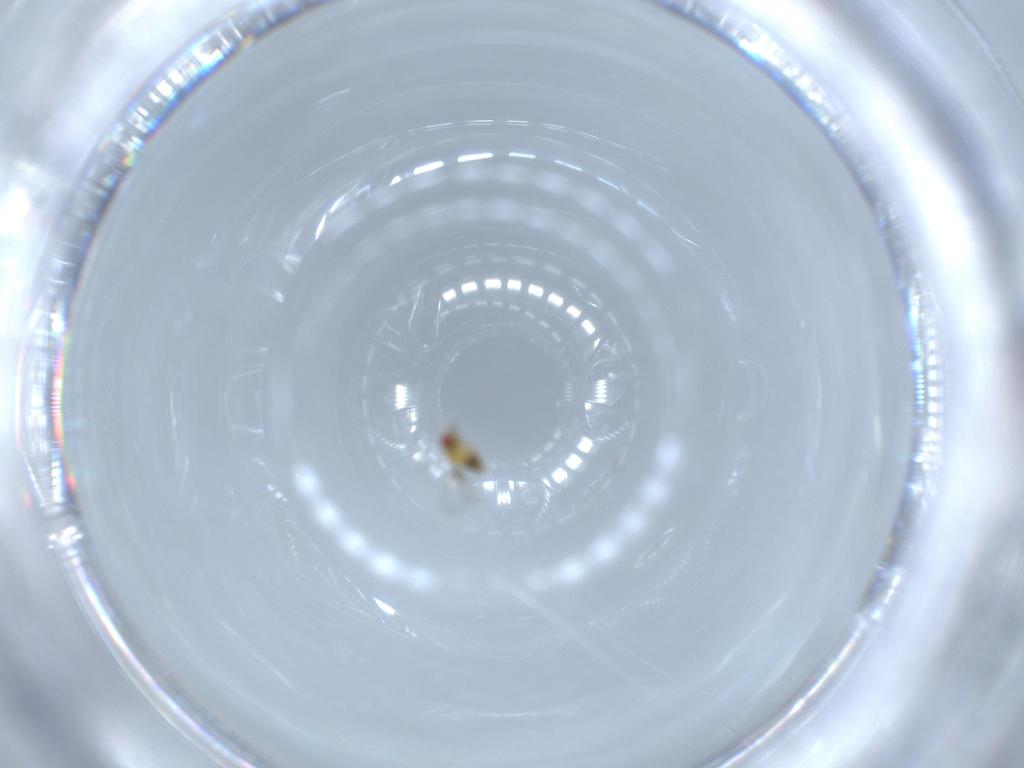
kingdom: Animalia
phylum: Arthropoda
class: Insecta
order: Hymenoptera
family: Trichogrammatidae
